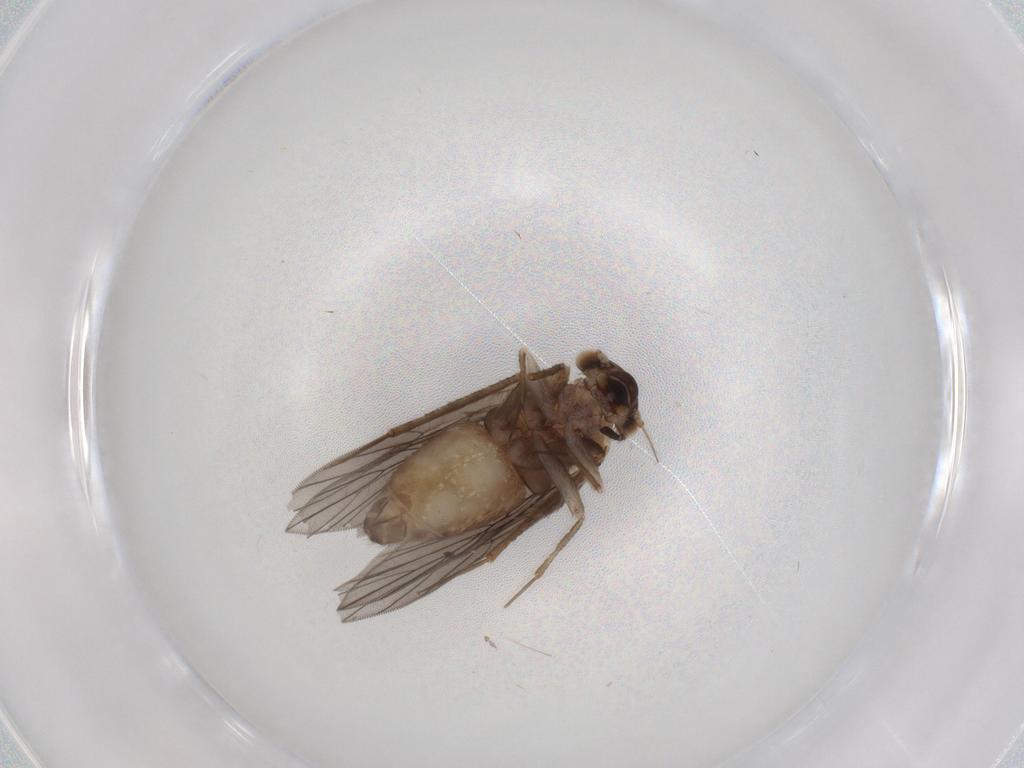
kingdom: Animalia
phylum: Arthropoda
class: Insecta
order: Psocodea
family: Lepidopsocidae
